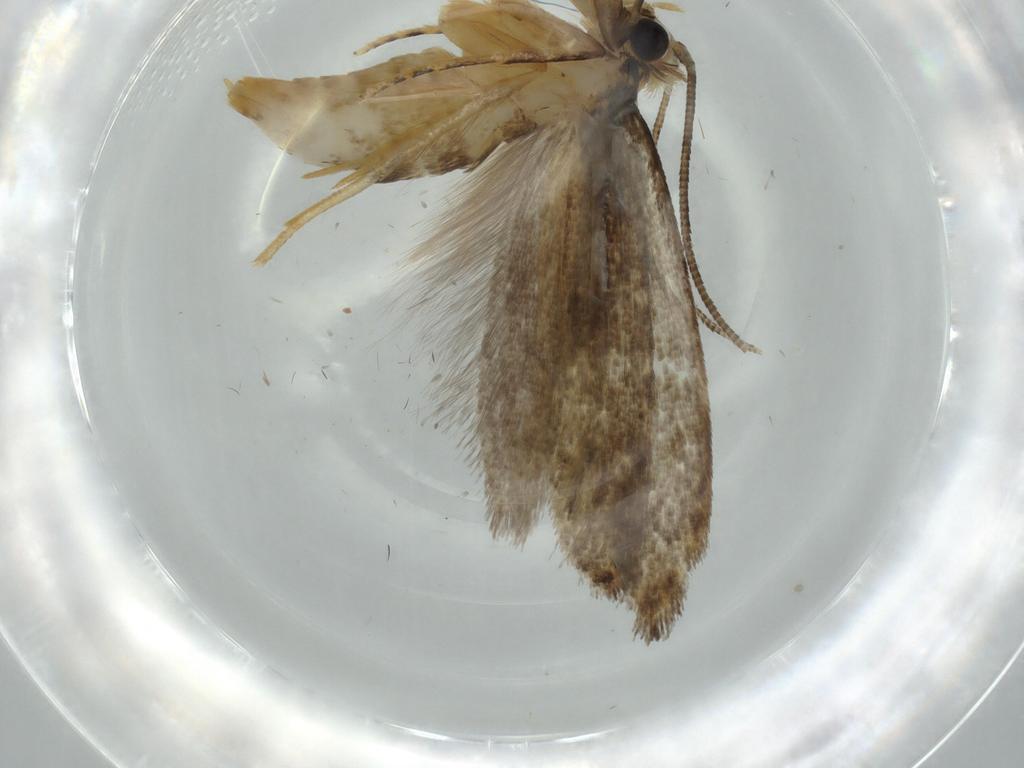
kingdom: Animalia
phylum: Arthropoda
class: Insecta
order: Lepidoptera
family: Tineidae
